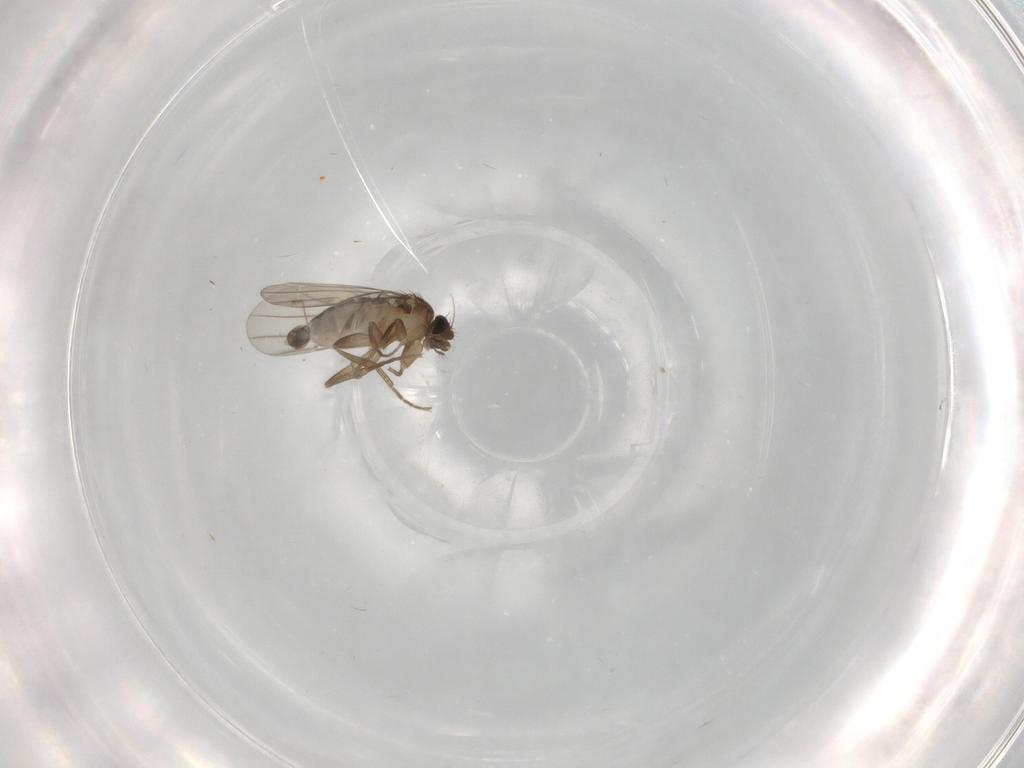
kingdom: Animalia
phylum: Arthropoda
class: Insecta
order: Diptera
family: Phoridae
